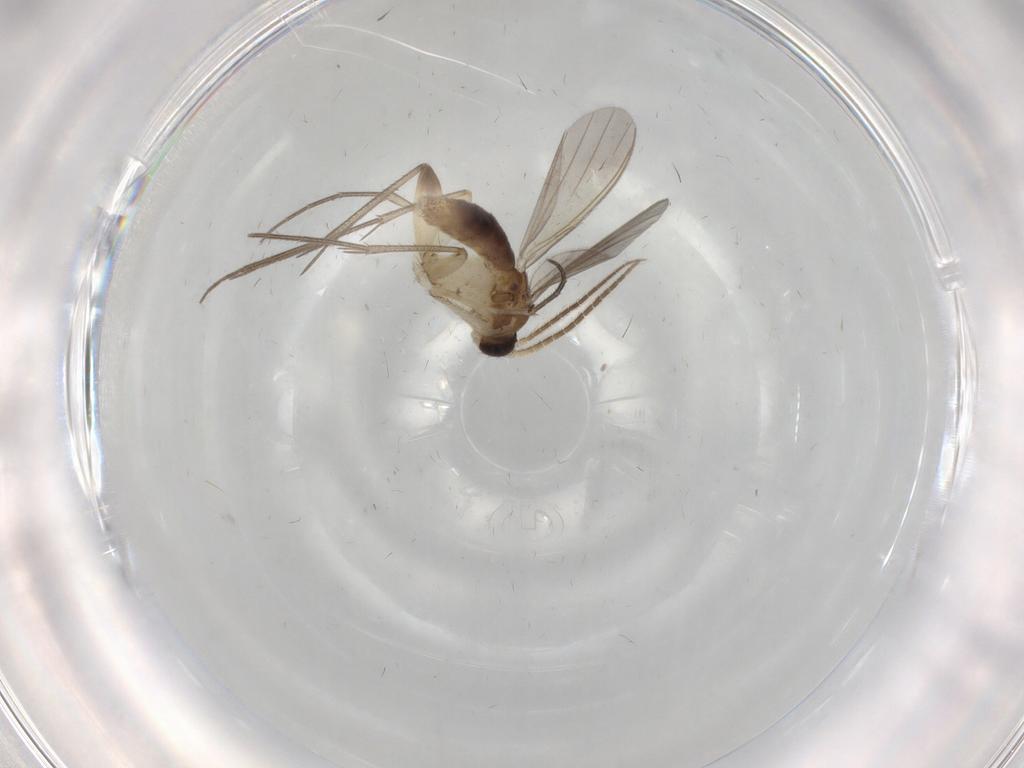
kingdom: Animalia
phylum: Arthropoda
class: Insecta
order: Diptera
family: Mycetophilidae
